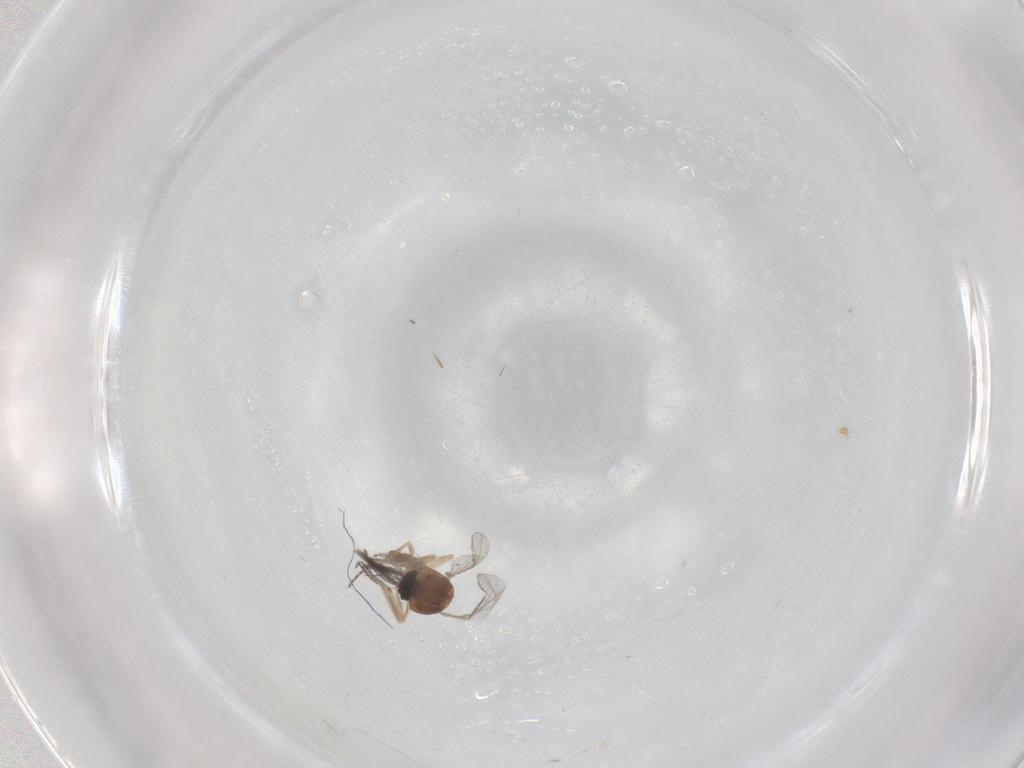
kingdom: Animalia
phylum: Arthropoda
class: Insecta
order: Diptera
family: Ceratopogonidae
